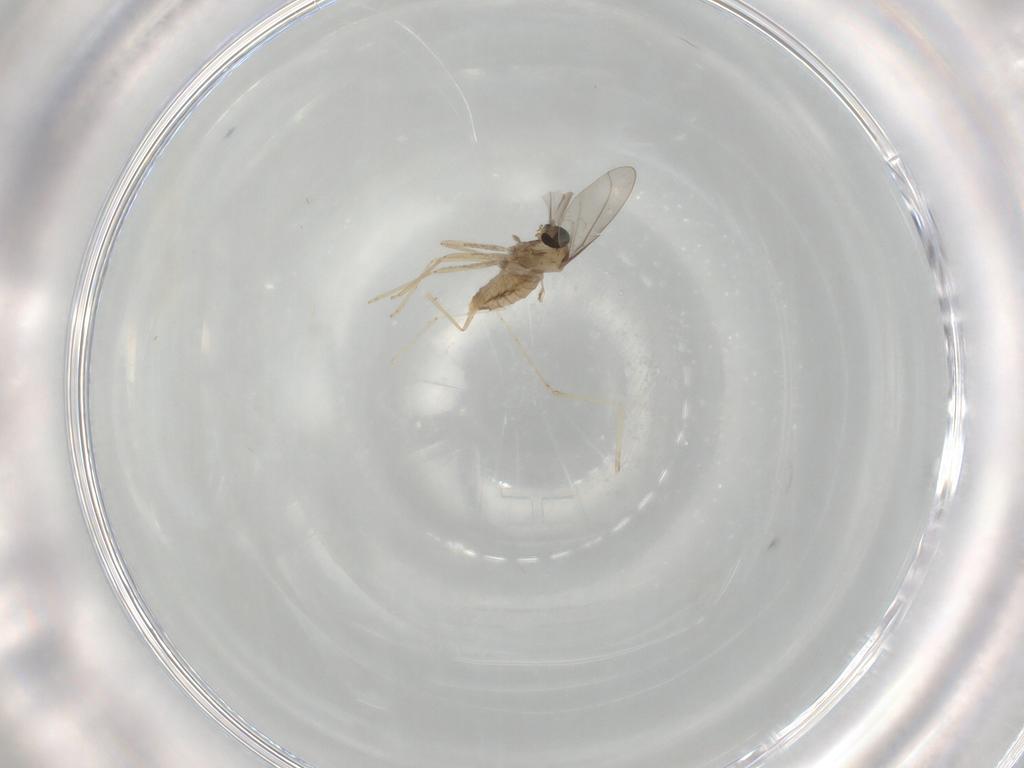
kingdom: Animalia
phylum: Arthropoda
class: Insecta
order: Diptera
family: Cecidomyiidae
